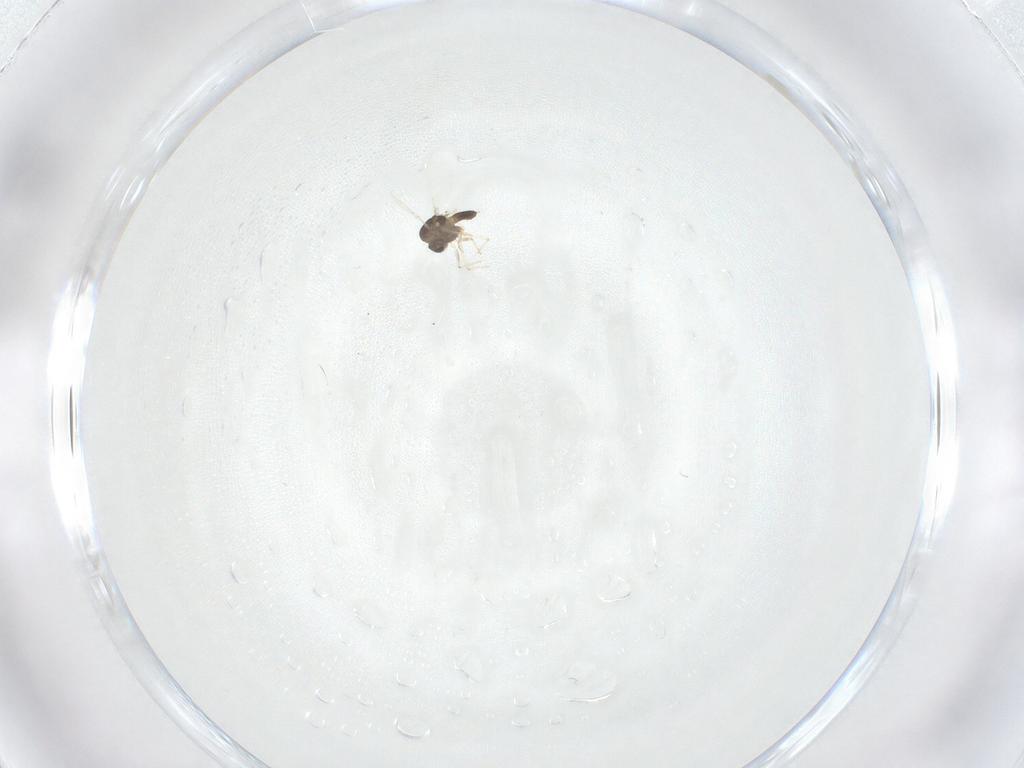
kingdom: Animalia
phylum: Arthropoda
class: Insecta
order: Diptera
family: Chironomidae
